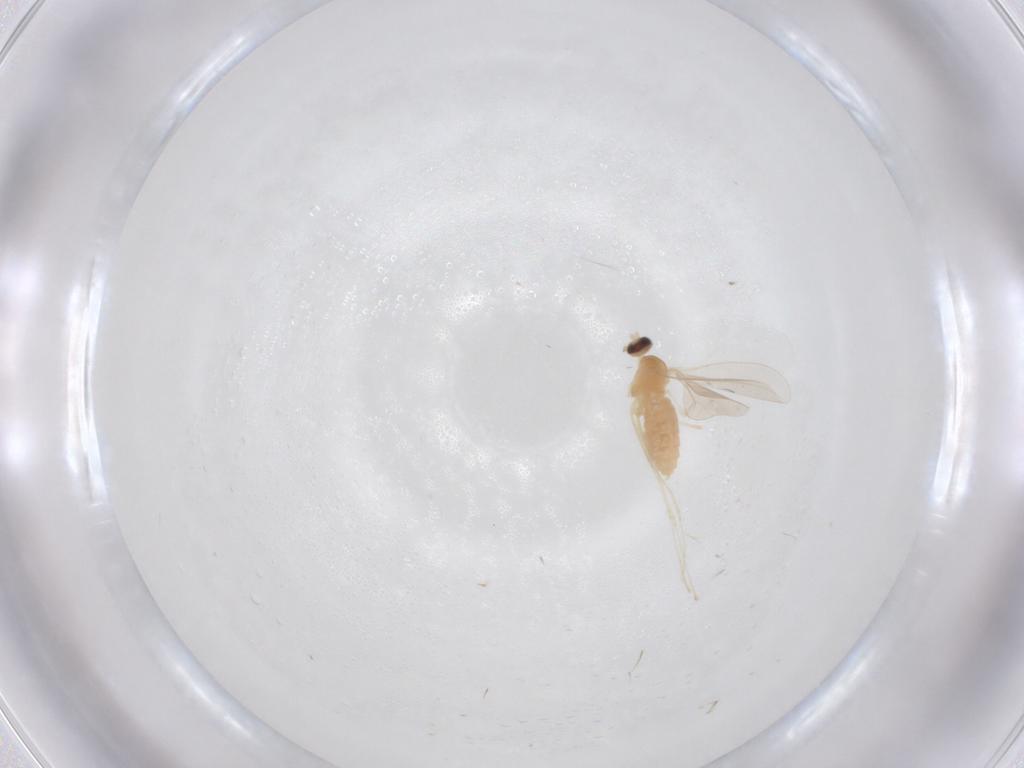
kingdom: Animalia
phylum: Arthropoda
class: Insecta
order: Diptera
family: Cecidomyiidae
